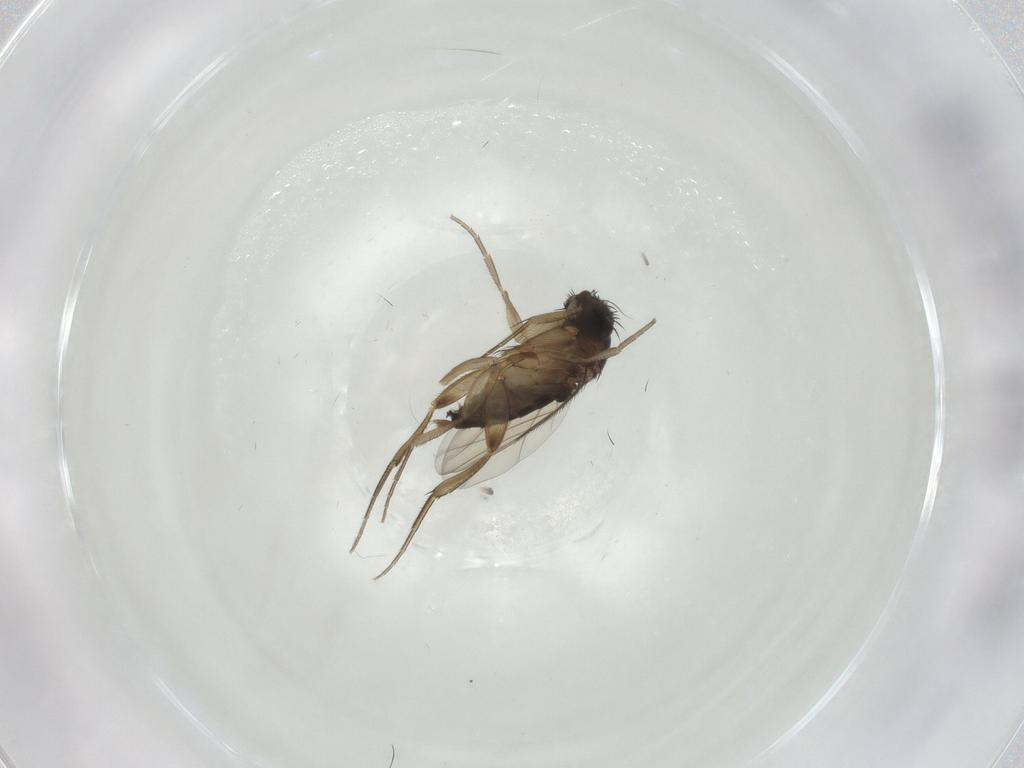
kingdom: Animalia
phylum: Arthropoda
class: Insecta
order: Diptera
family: Phoridae
